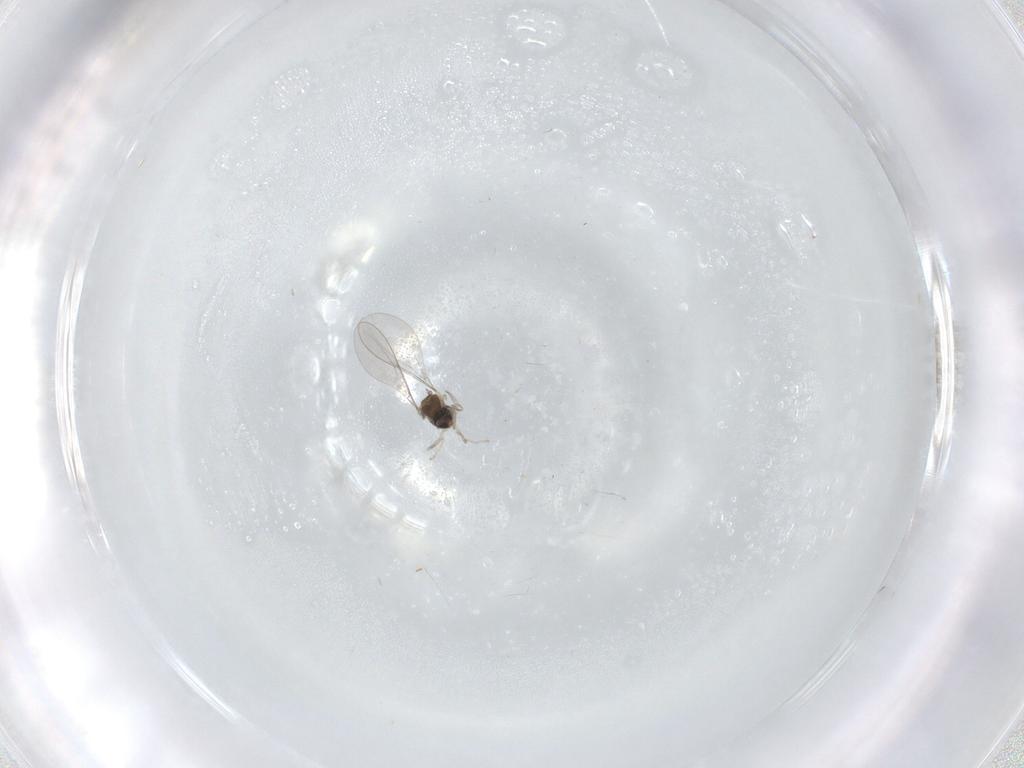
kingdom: Animalia
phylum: Arthropoda
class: Insecta
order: Diptera
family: Cecidomyiidae
